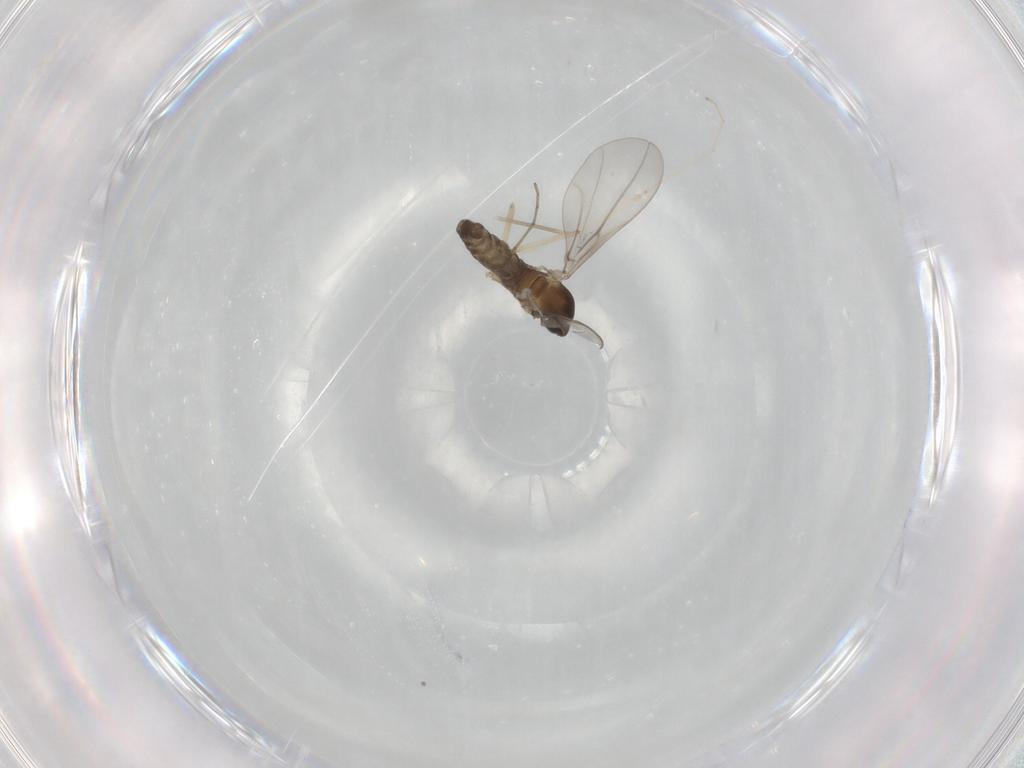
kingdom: Animalia
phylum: Arthropoda
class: Insecta
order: Diptera
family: Cecidomyiidae
